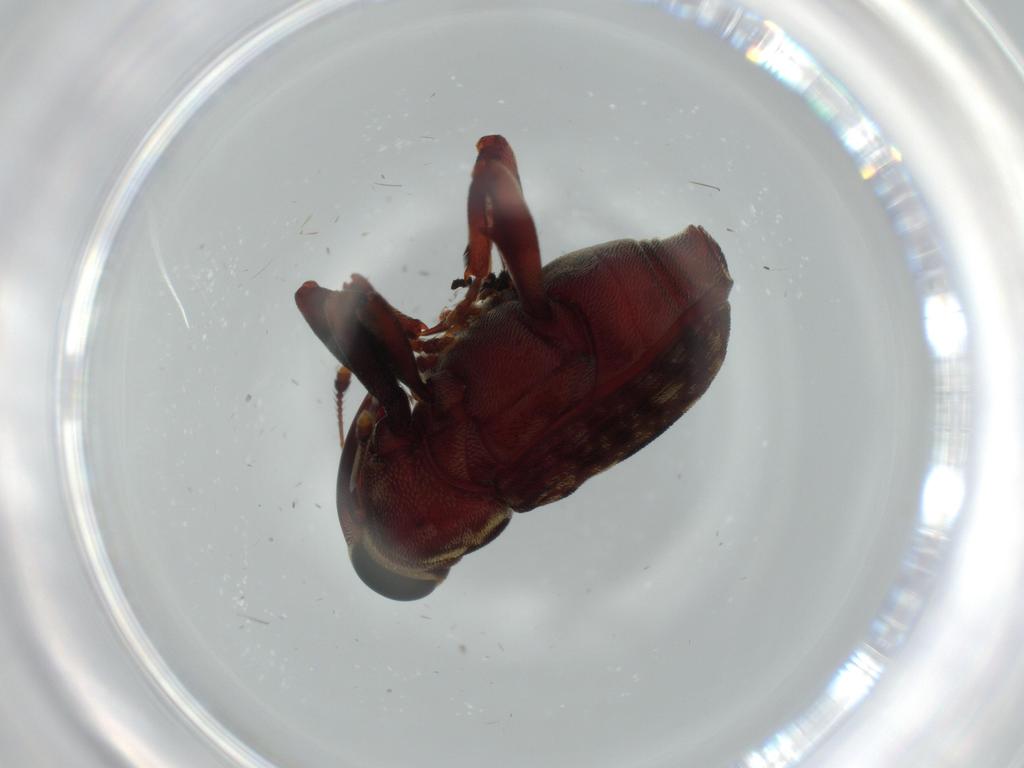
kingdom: Animalia
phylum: Arthropoda
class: Insecta
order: Coleoptera
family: Curculionidae
